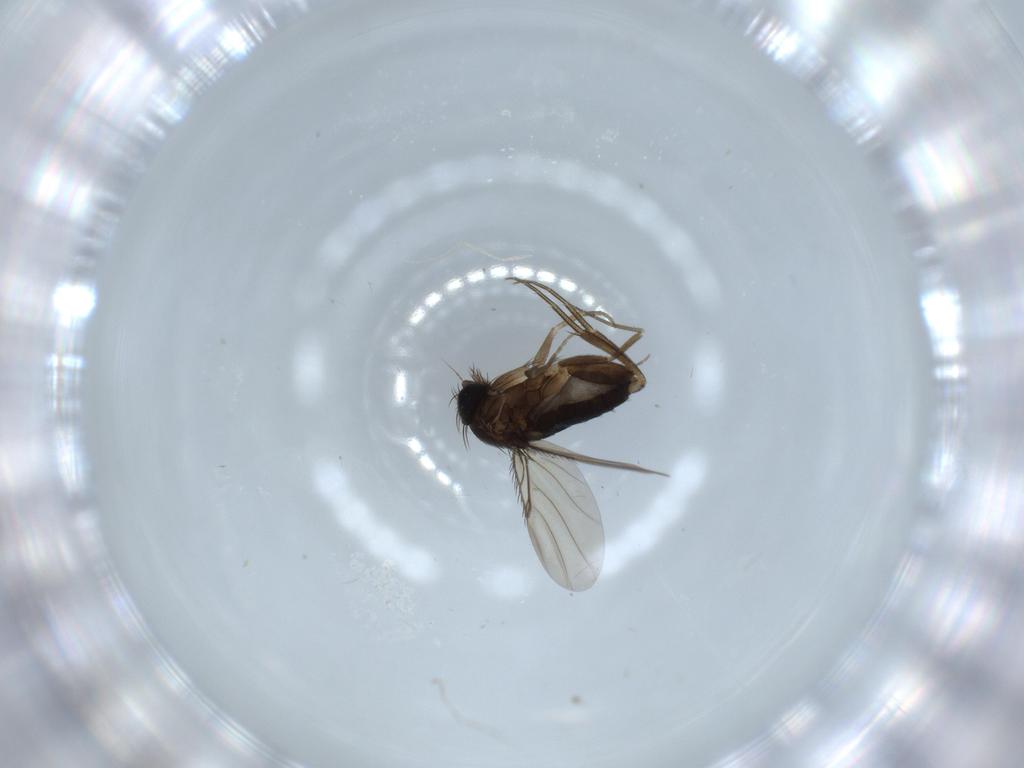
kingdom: Animalia
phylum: Arthropoda
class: Insecta
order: Diptera
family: Phoridae
